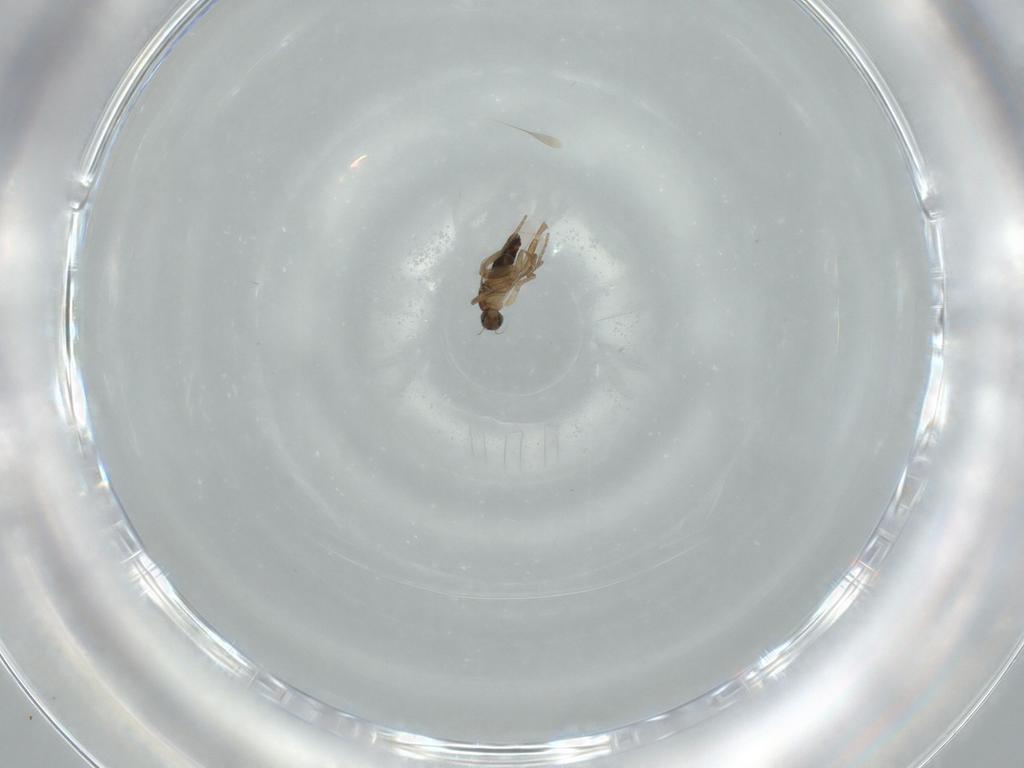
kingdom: Animalia
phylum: Arthropoda
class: Insecta
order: Diptera
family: Phoridae
